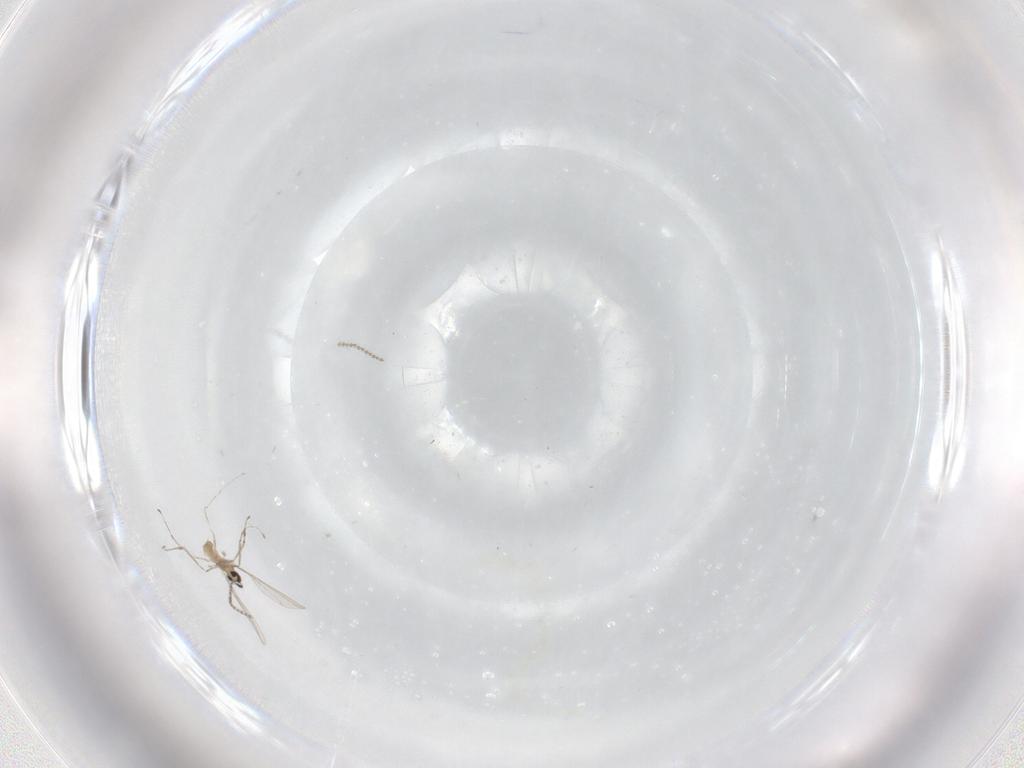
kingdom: Animalia
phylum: Arthropoda
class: Insecta
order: Diptera
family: Cecidomyiidae
